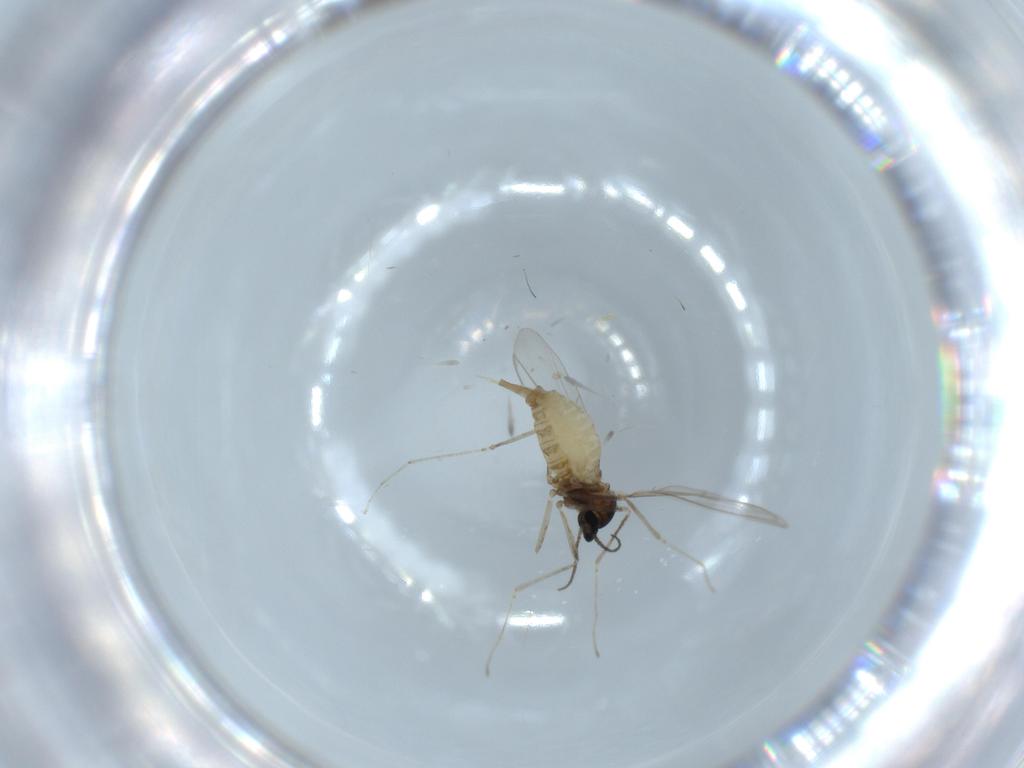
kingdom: Animalia
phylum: Arthropoda
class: Insecta
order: Diptera
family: Cecidomyiidae
